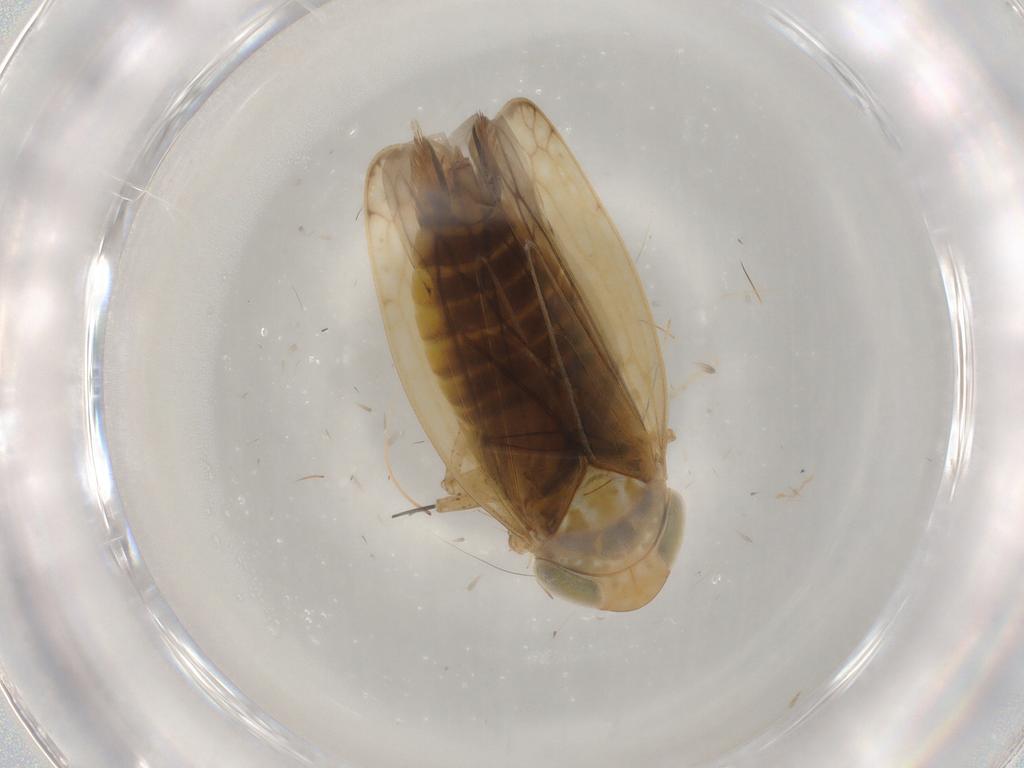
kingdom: Animalia
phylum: Arthropoda
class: Insecta
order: Hemiptera
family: Cicadellidae
